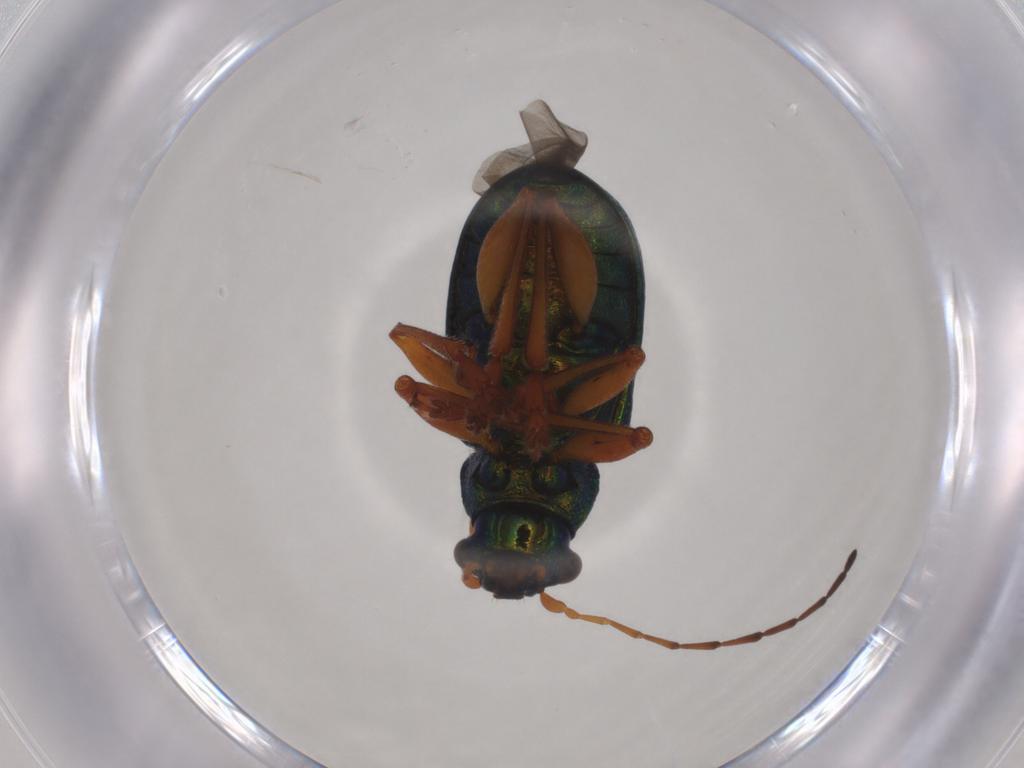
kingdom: Animalia
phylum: Arthropoda
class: Insecta
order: Coleoptera
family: Chrysomelidae
